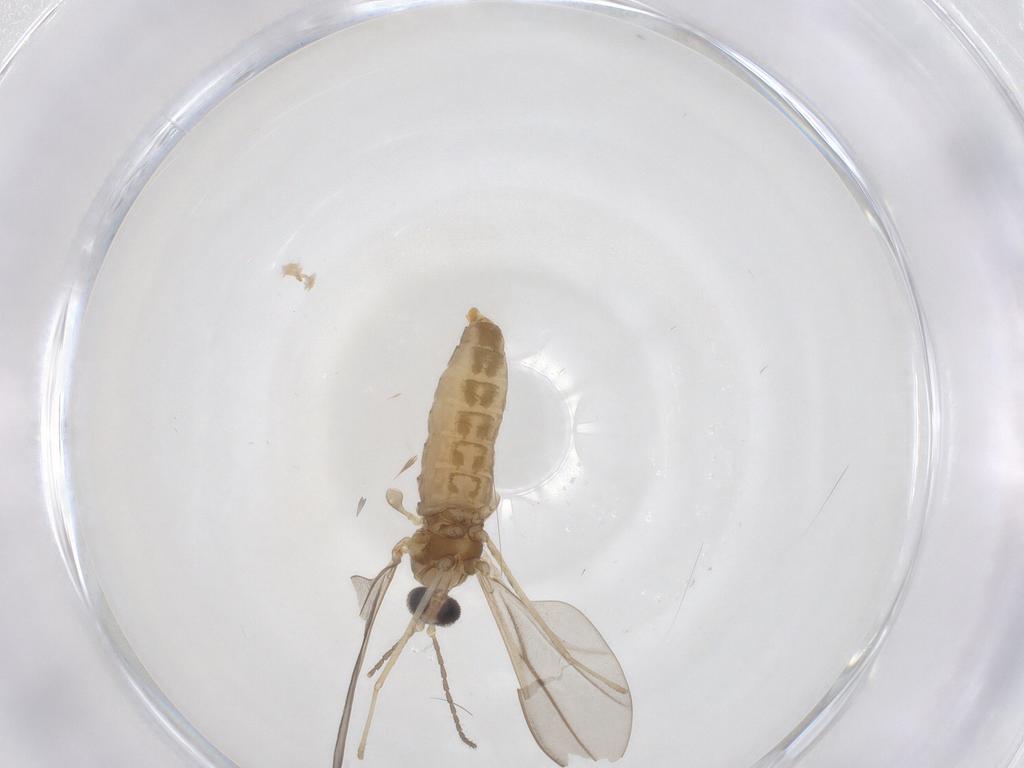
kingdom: Animalia
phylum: Arthropoda
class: Insecta
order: Diptera
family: Cecidomyiidae
